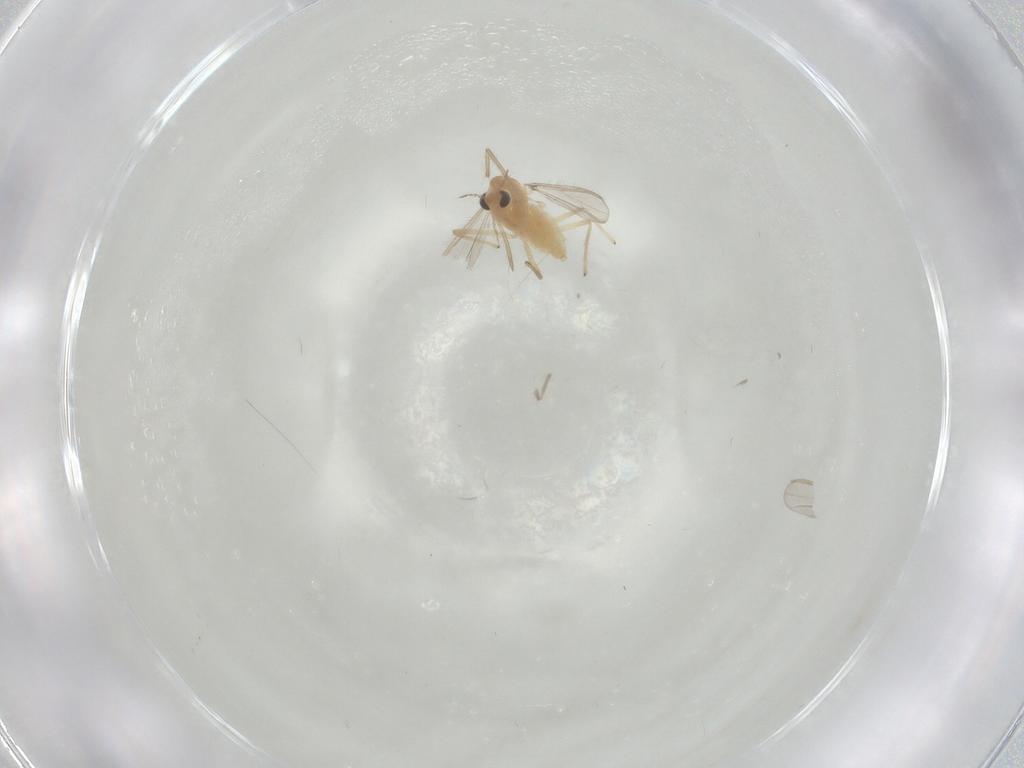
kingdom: Animalia
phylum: Arthropoda
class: Insecta
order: Diptera
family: Chironomidae
